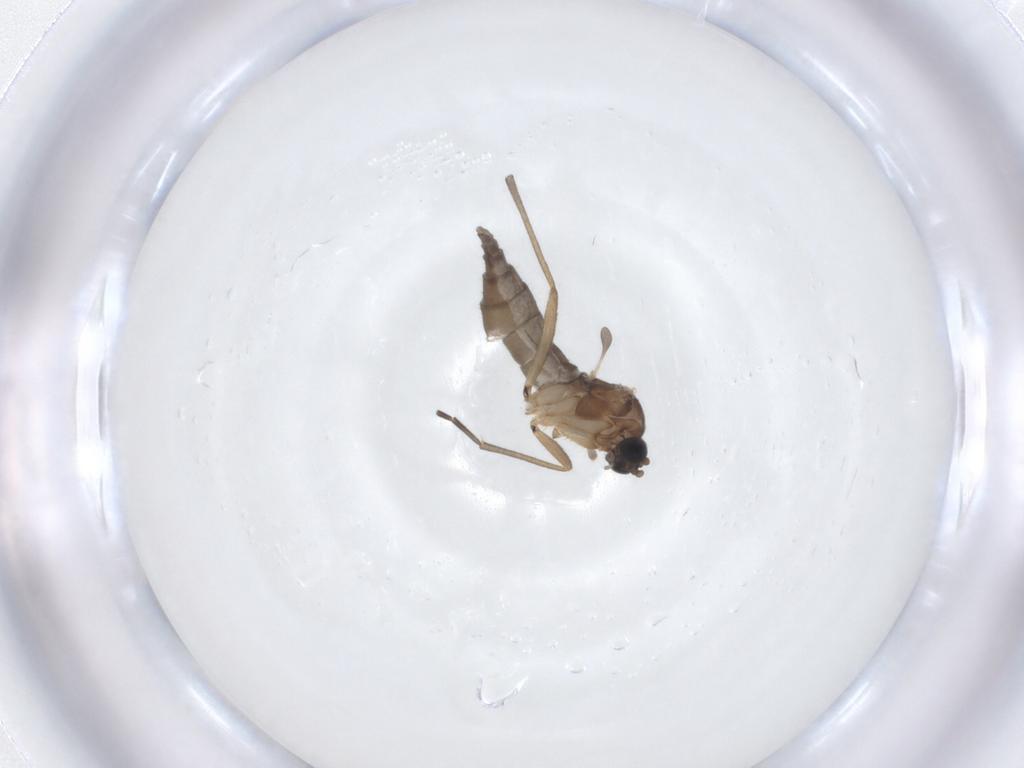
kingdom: Animalia
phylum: Arthropoda
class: Insecta
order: Diptera
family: Sciaridae
